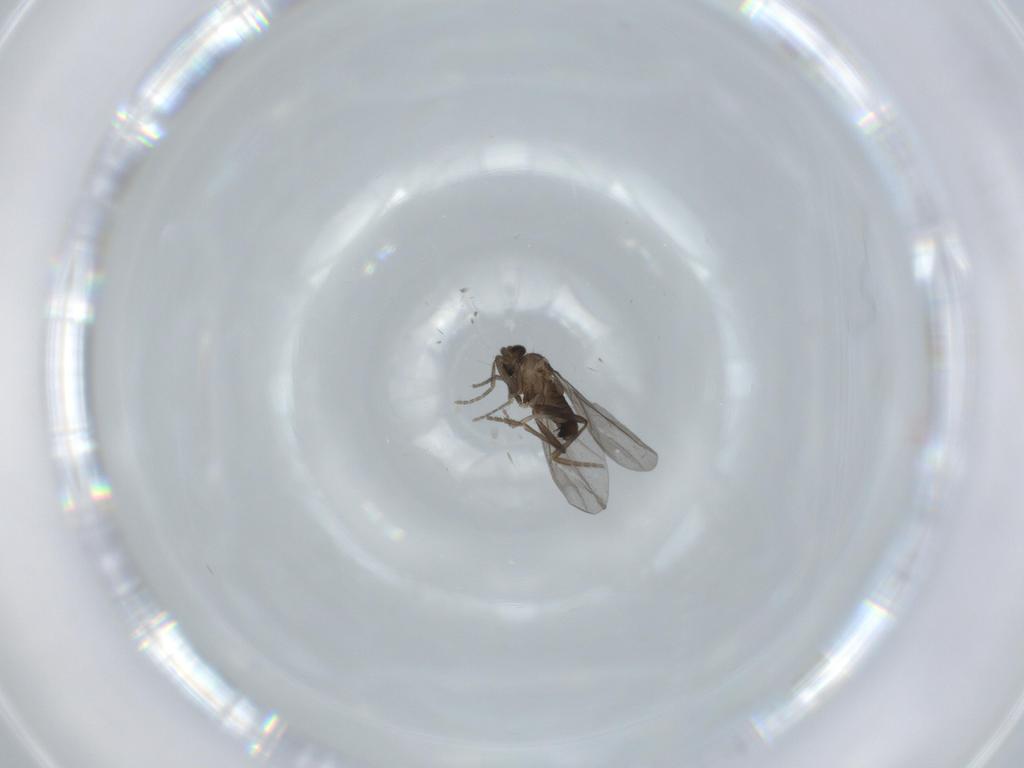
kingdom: Animalia
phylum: Arthropoda
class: Insecta
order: Diptera
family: Phoridae
